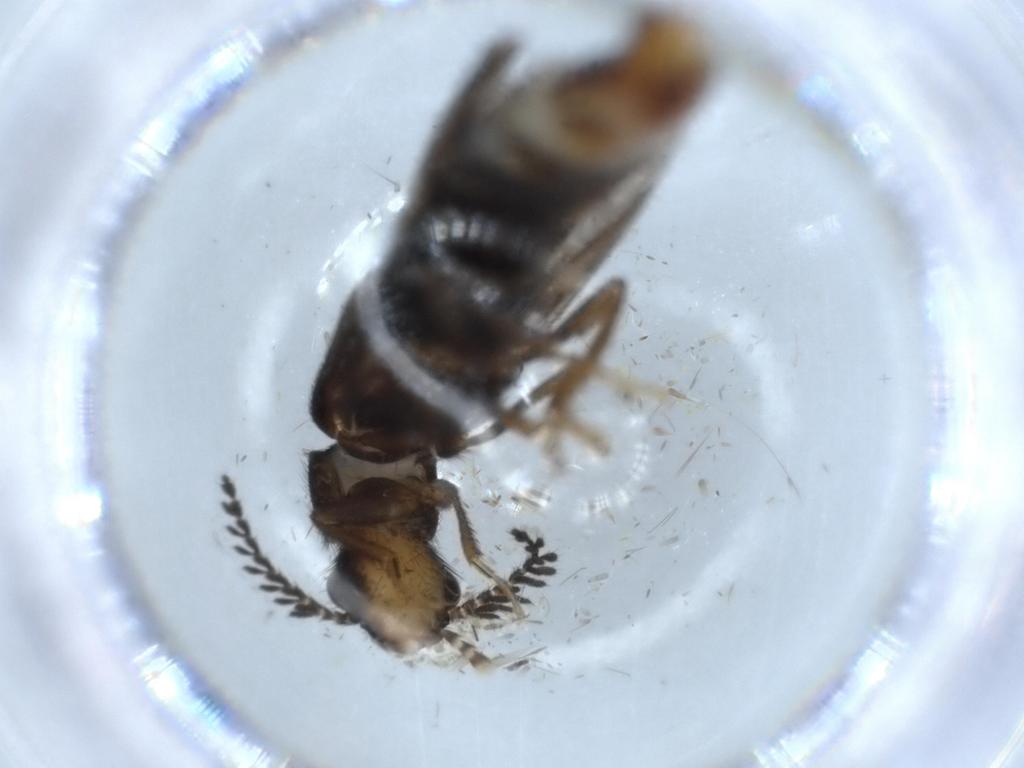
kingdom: Animalia
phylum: Arthropoda
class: Insecta
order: Coleoptera
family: Phengodidae
